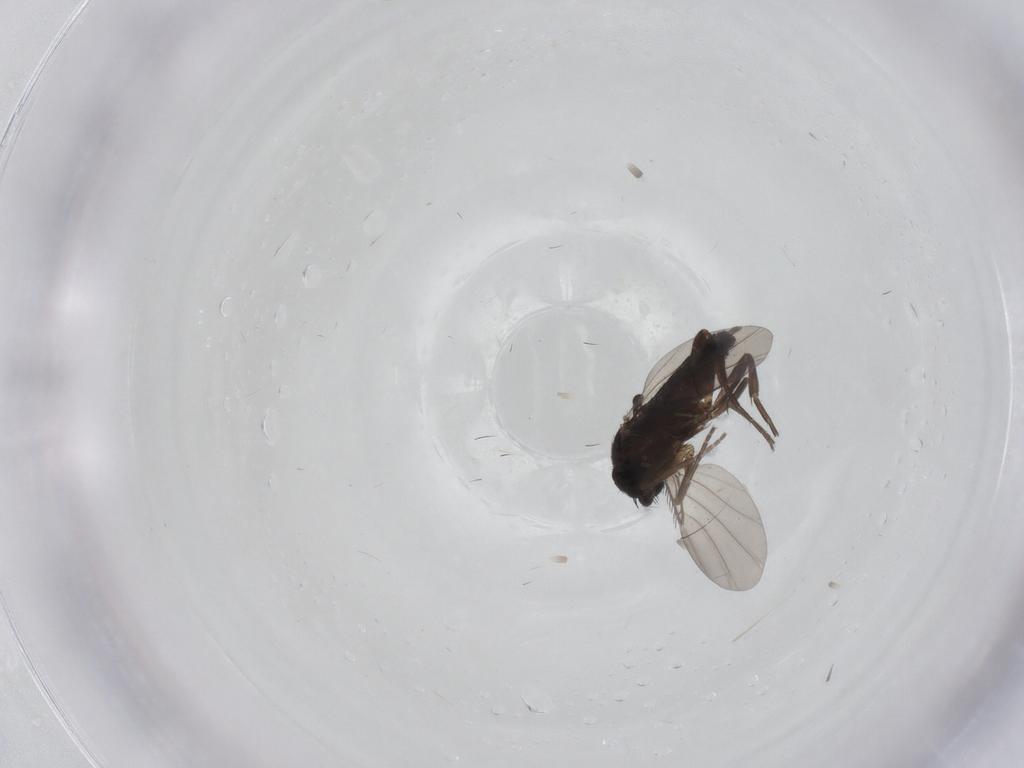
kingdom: Animalia
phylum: Arthropoda
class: Insecta
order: Diptera
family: Phoridae
